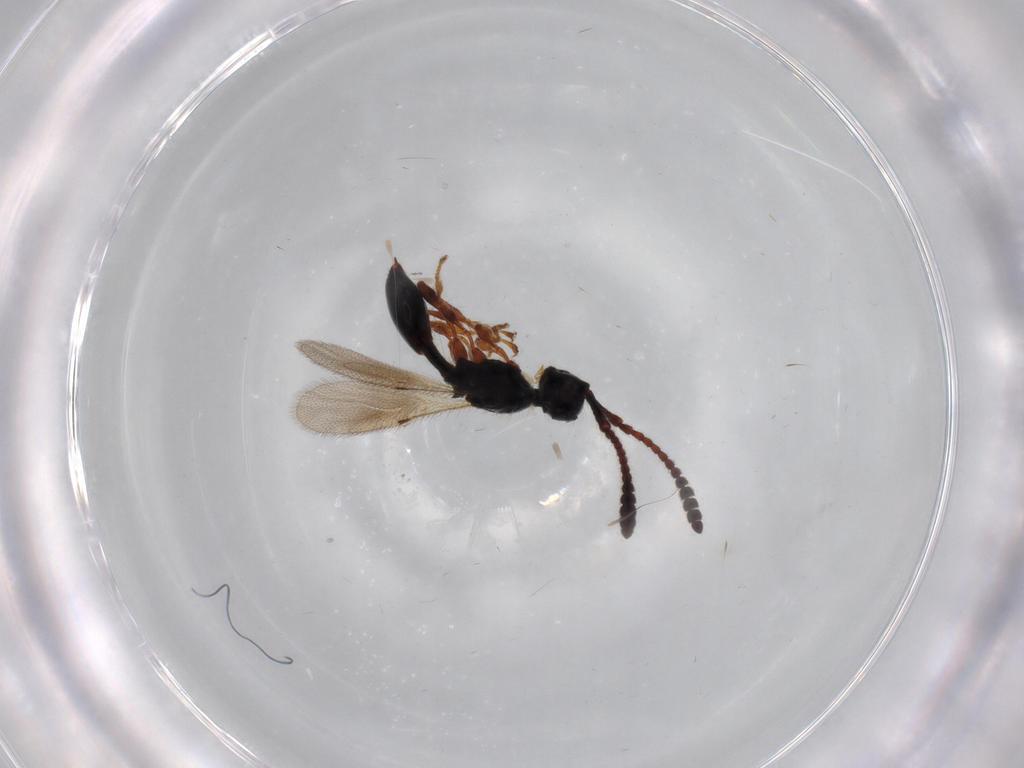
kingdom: Animalia
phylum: Arthropoda
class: Insecta
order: Hymenoptera
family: Diapriidae
